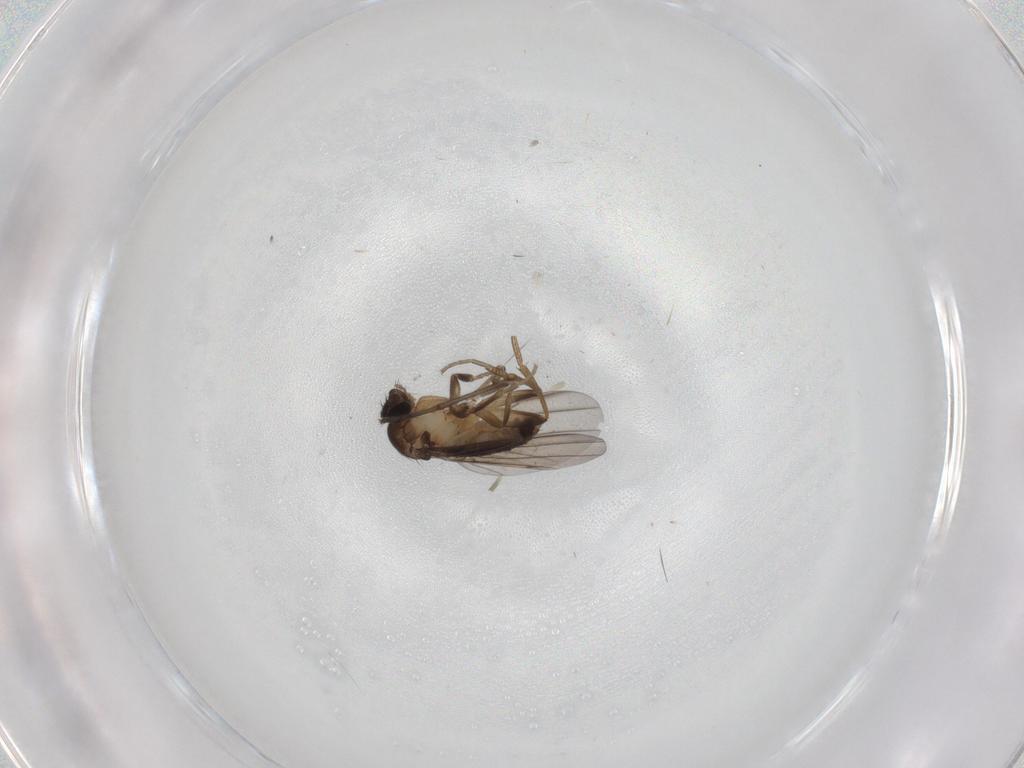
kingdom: Animalia
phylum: Arthropoda
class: Insecta
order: Diptera
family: Phoridae
